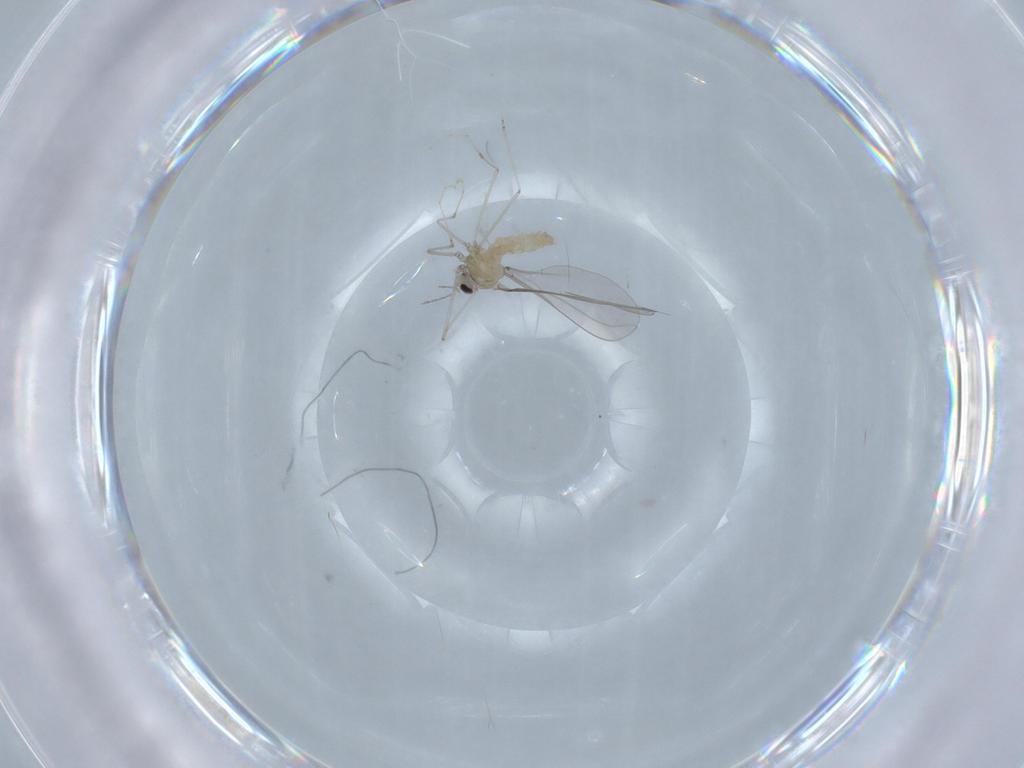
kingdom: Animalia
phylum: Arthropoda
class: Insecta
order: Diptera
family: Cecidomyiidae
